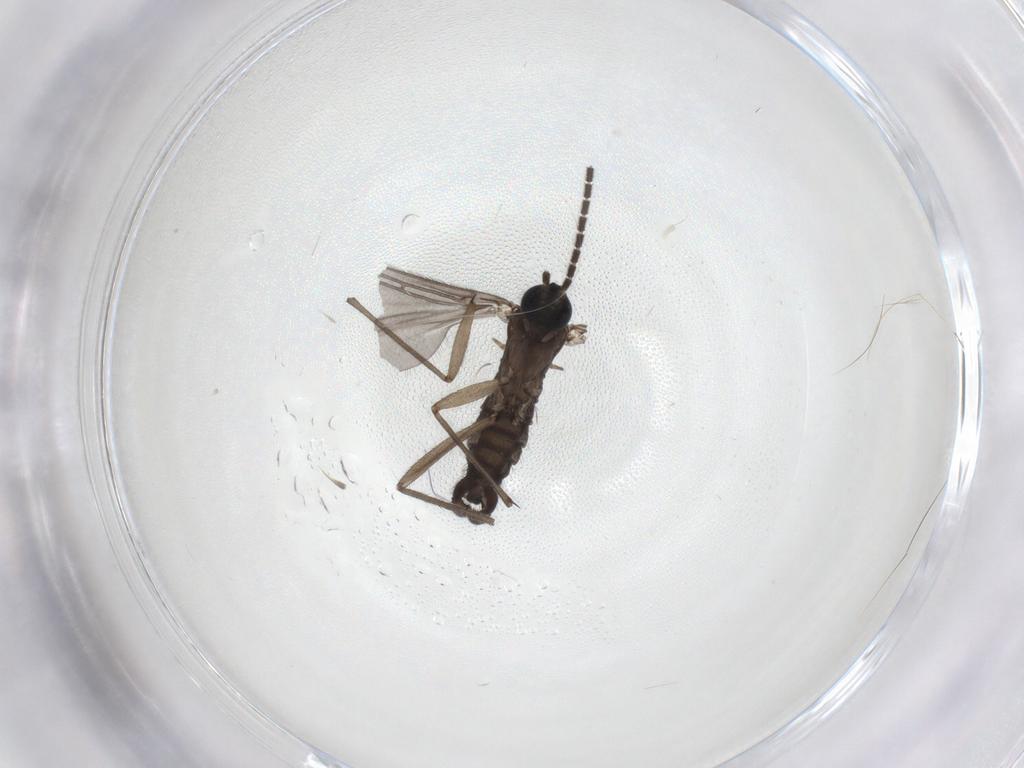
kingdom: Animalia
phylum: Arthropoda
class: Insecta
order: Diptera
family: Sciaridae
